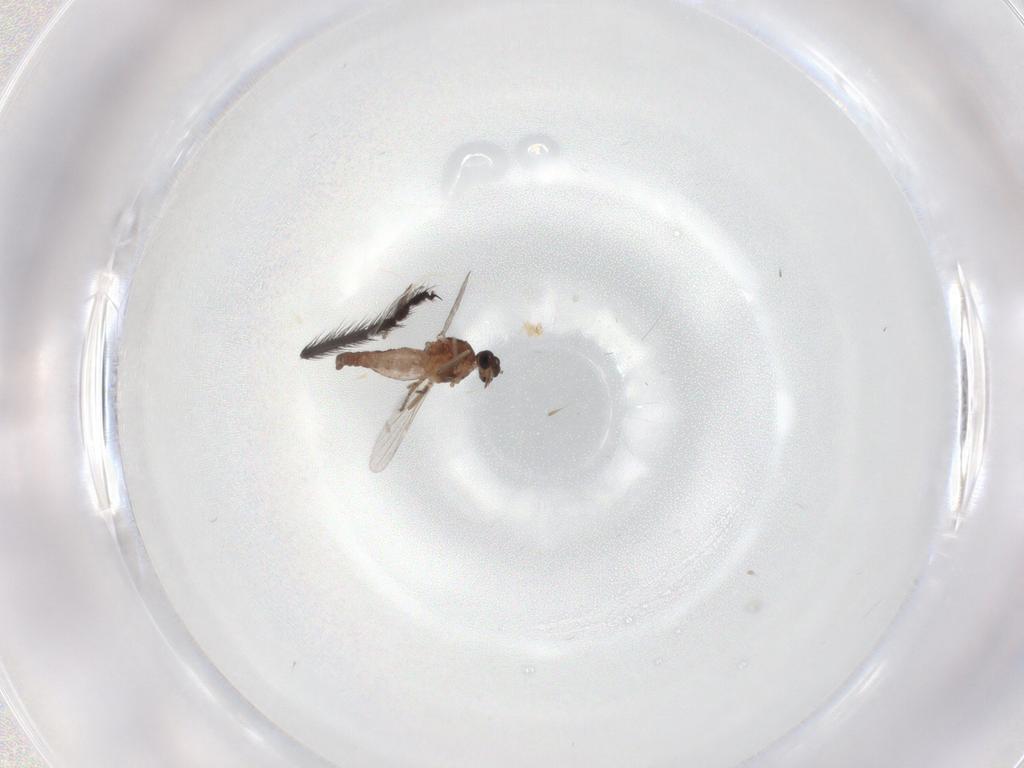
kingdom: Animalia
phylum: Arthropoda
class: Insecta
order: Diptera
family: Ceratopogonidae
